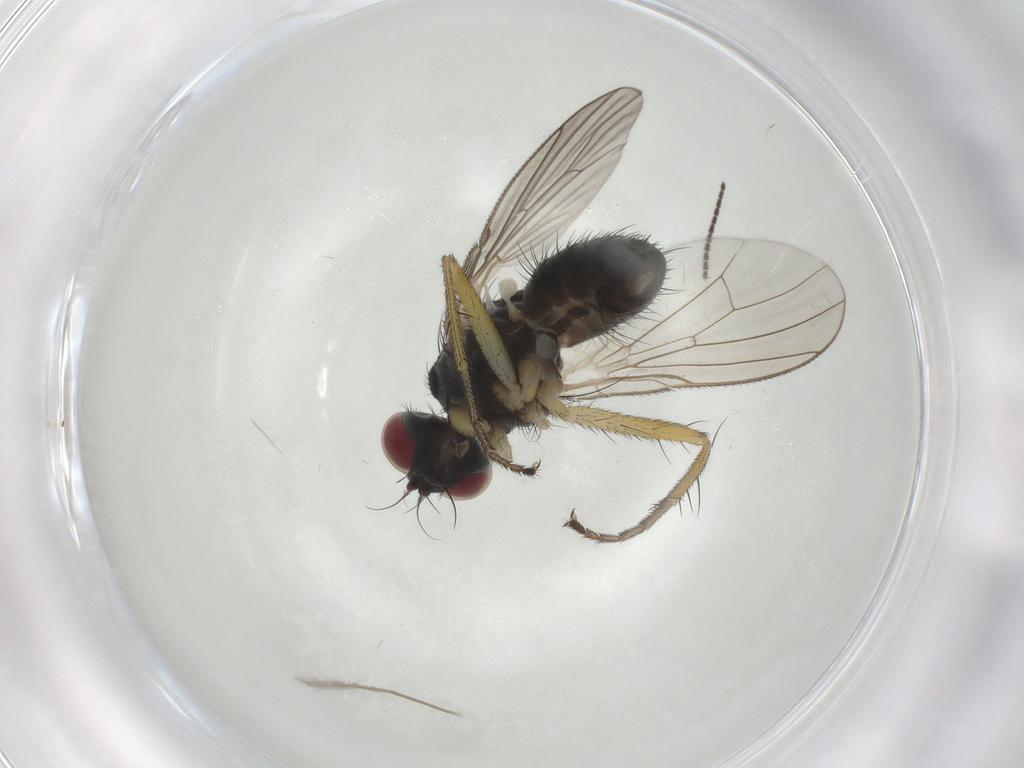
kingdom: Animalia
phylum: Arthropoda
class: Insecta
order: Diptera
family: Muscidae
